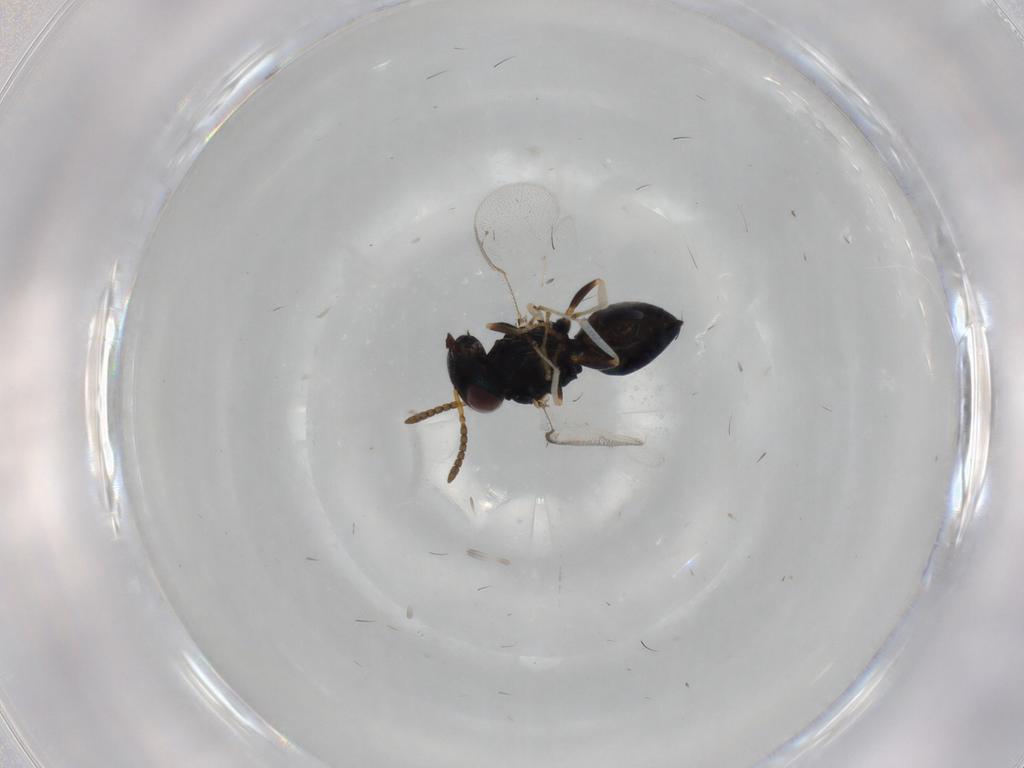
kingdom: Animalia
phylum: Arthropoda
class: Insecta
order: Hymenoptera
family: Pteromalidae
